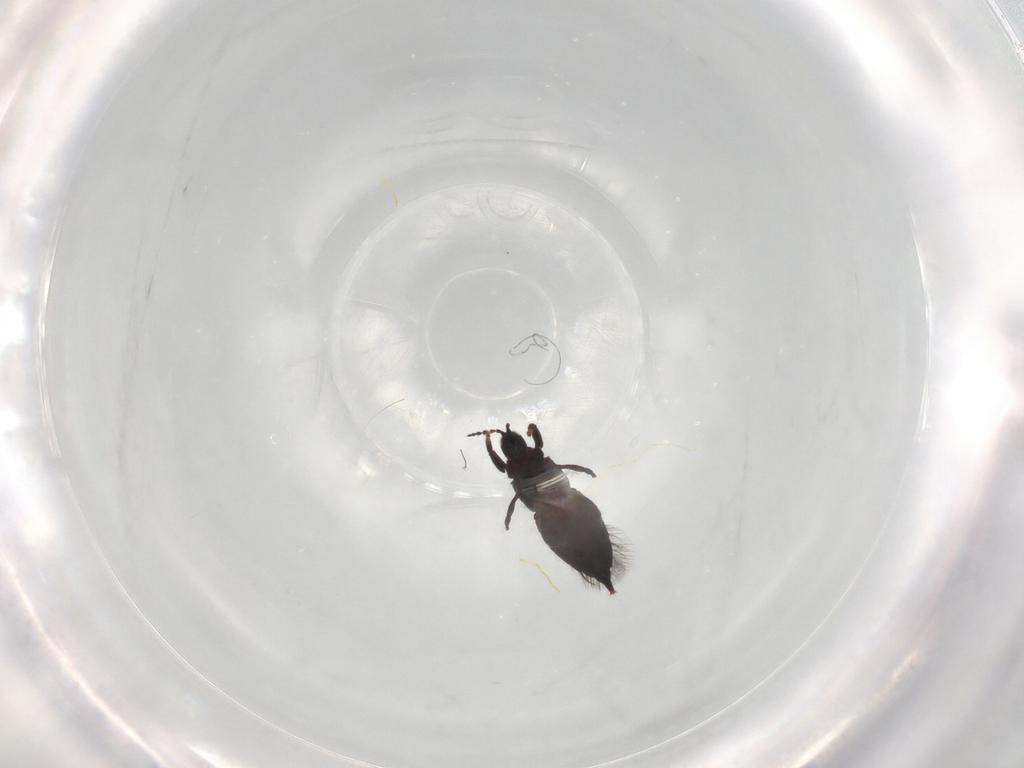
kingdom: Animalia
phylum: Arthropoda
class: Insecta
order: Thysanoptera
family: Phlaeothripidae
